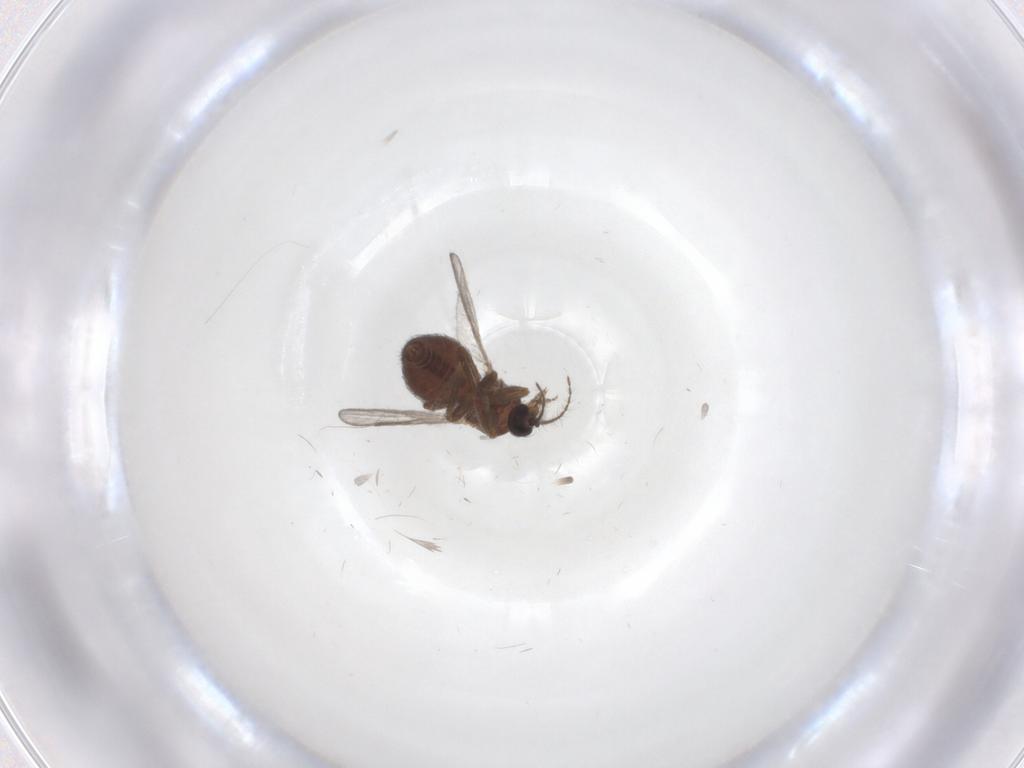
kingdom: Animalia
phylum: Arthropoda
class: Insecta
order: Diptera
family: Ceratopogonidae
